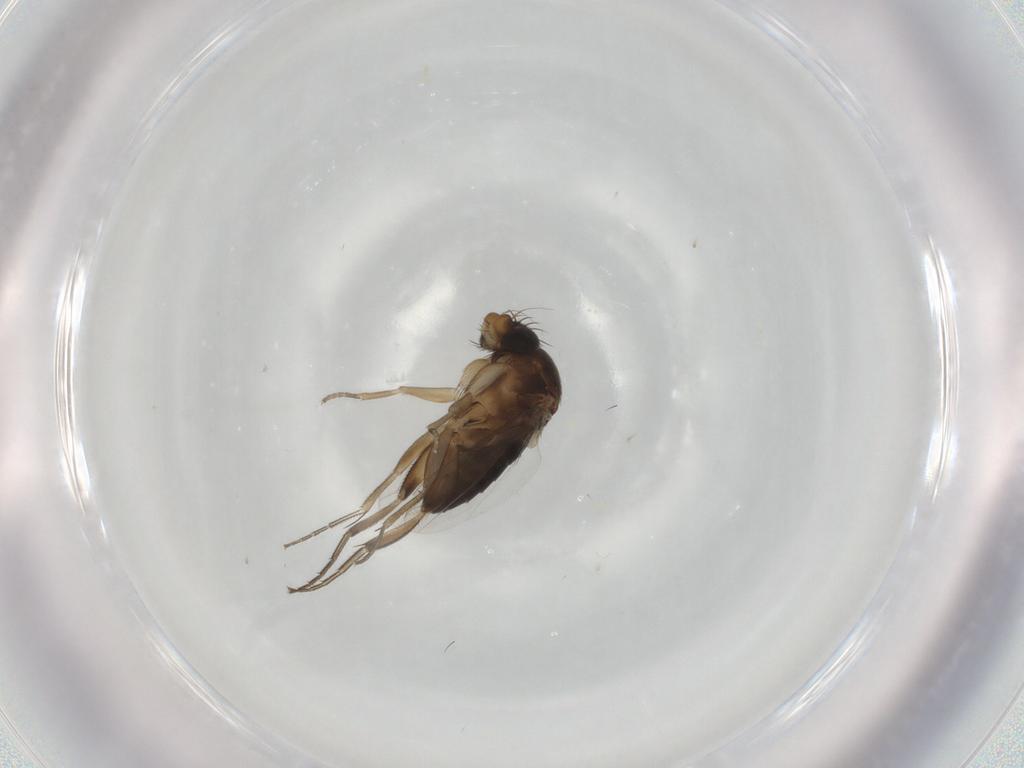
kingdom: Animalia
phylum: Arthropoda
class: Insecta
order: Diptera
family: Phoridae
